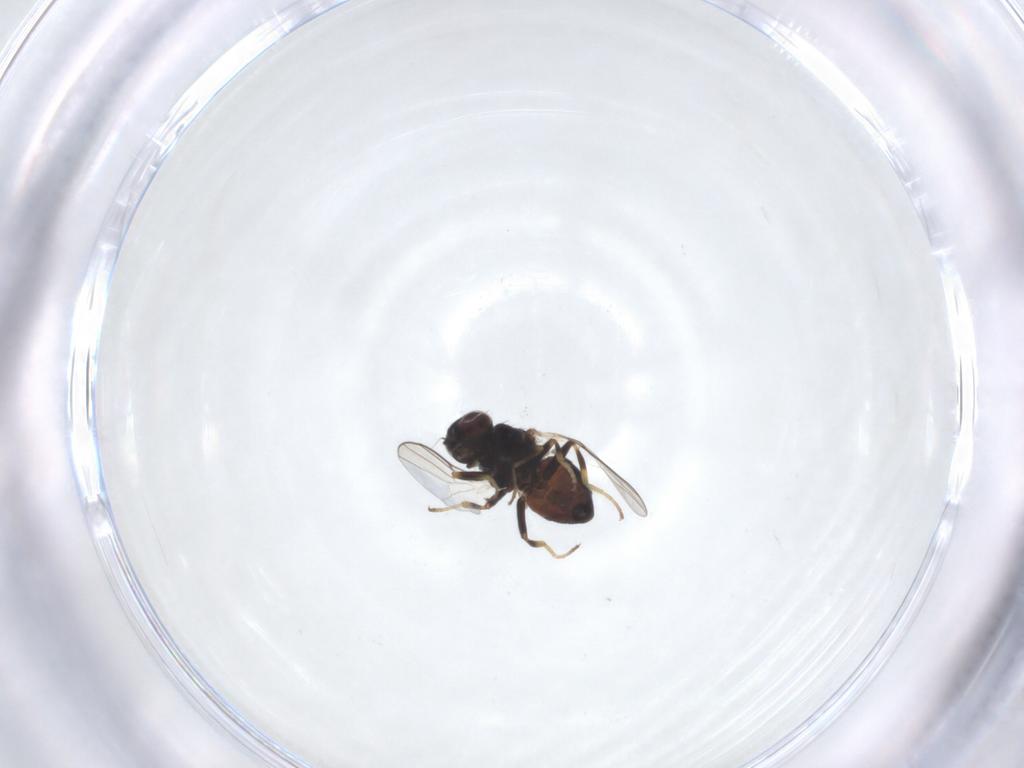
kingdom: Animalia
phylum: Arthropoda
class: Insecta
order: Diptera
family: Chloropidae
